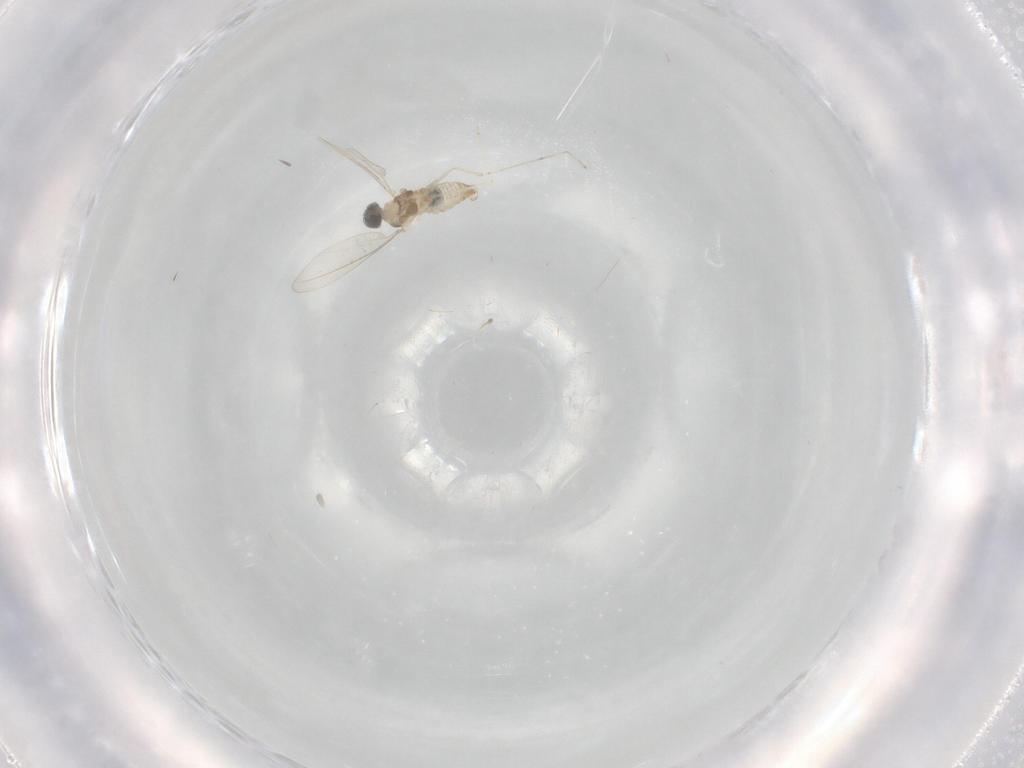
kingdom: Animalia
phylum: Arthropoda
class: Insecta
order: Diptera
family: Cecidomyiidae
